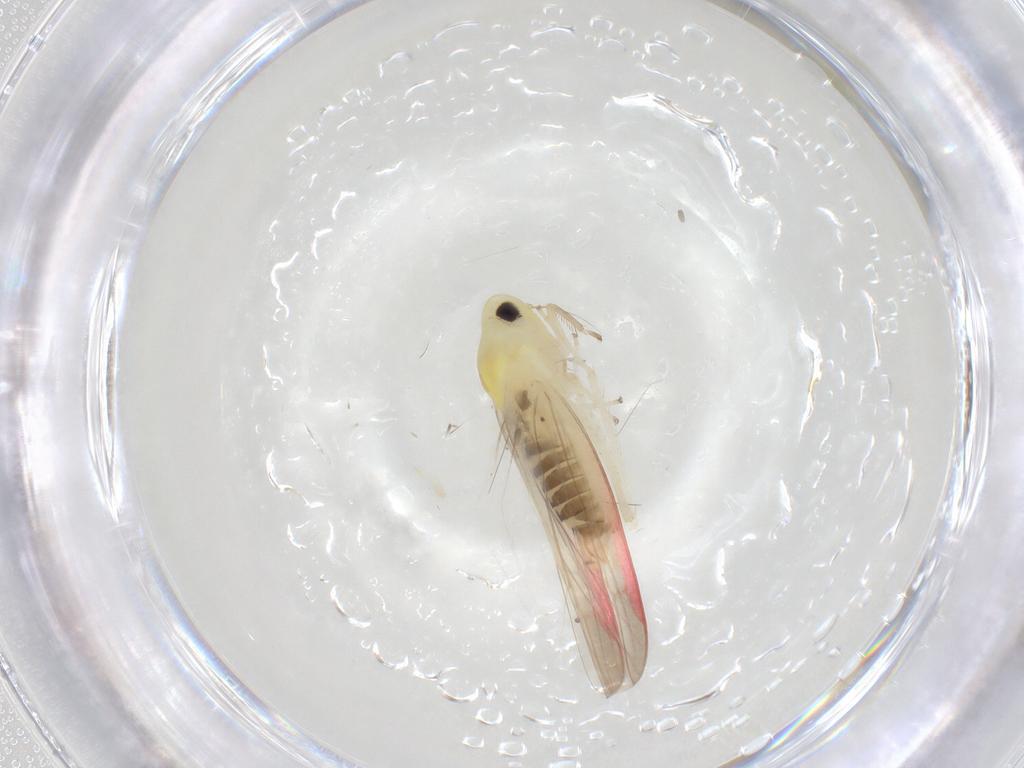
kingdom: Animalia
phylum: Arthropoda
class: Insecta
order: Hemiptera
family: Cicadellidae
